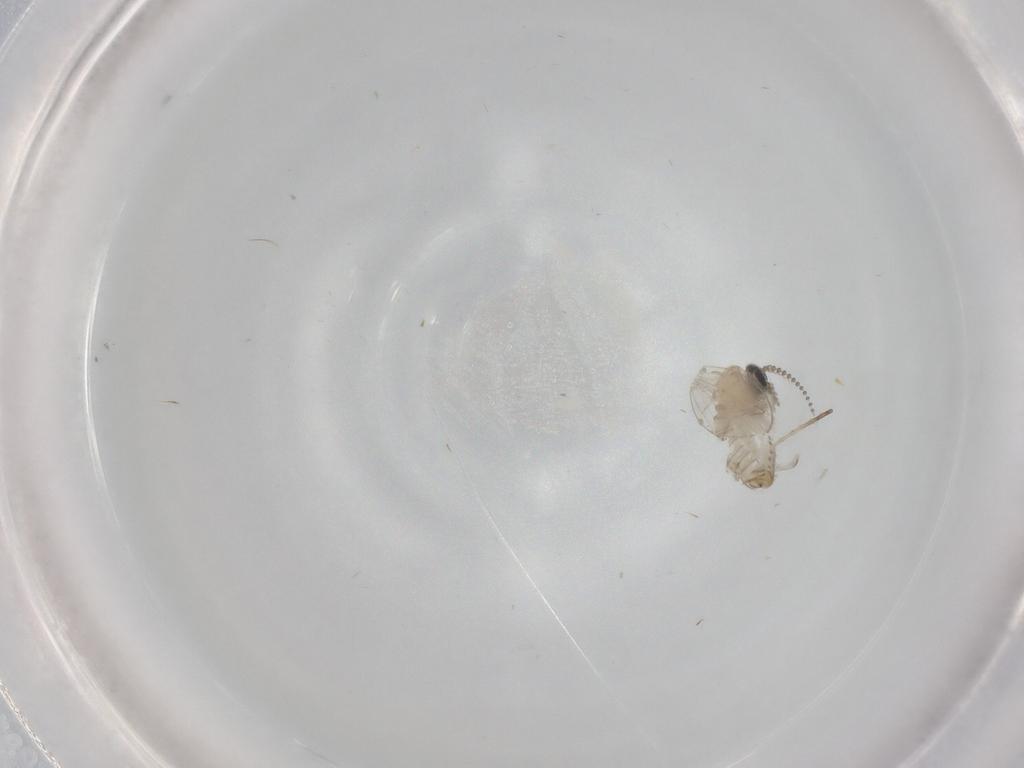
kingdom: Animalia
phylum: Arthropoda
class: Insecta
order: Diptera
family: Psychodidae
